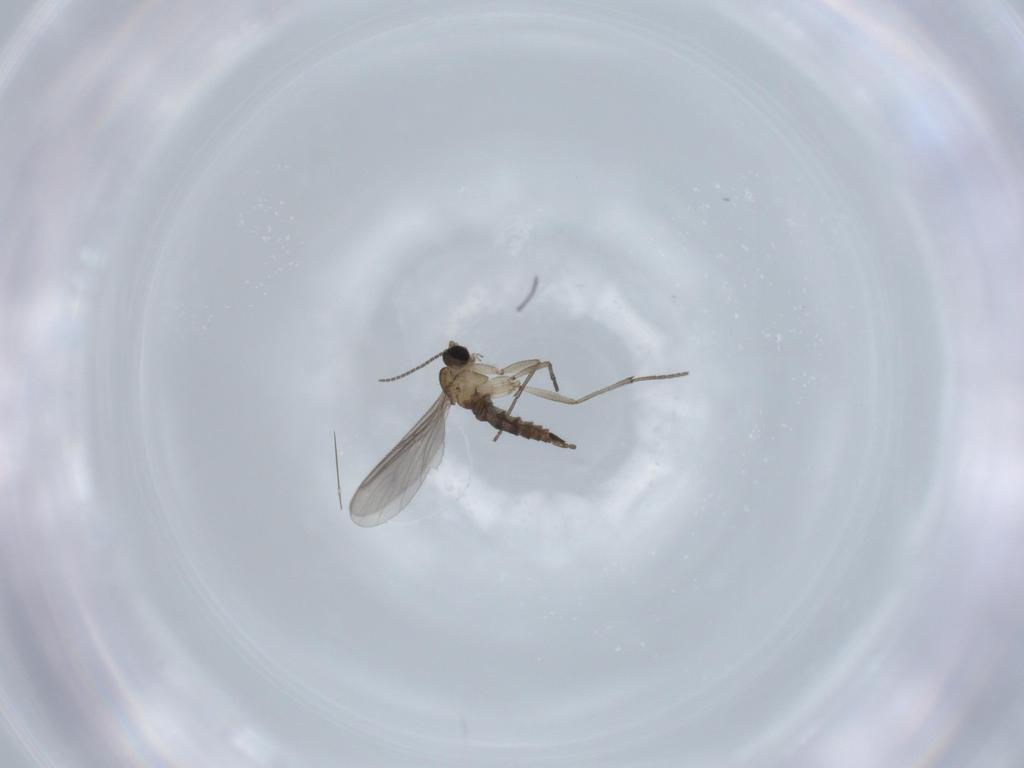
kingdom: Animalia
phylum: Arthropoda
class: Insecta
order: Diptera
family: Sciaridae
